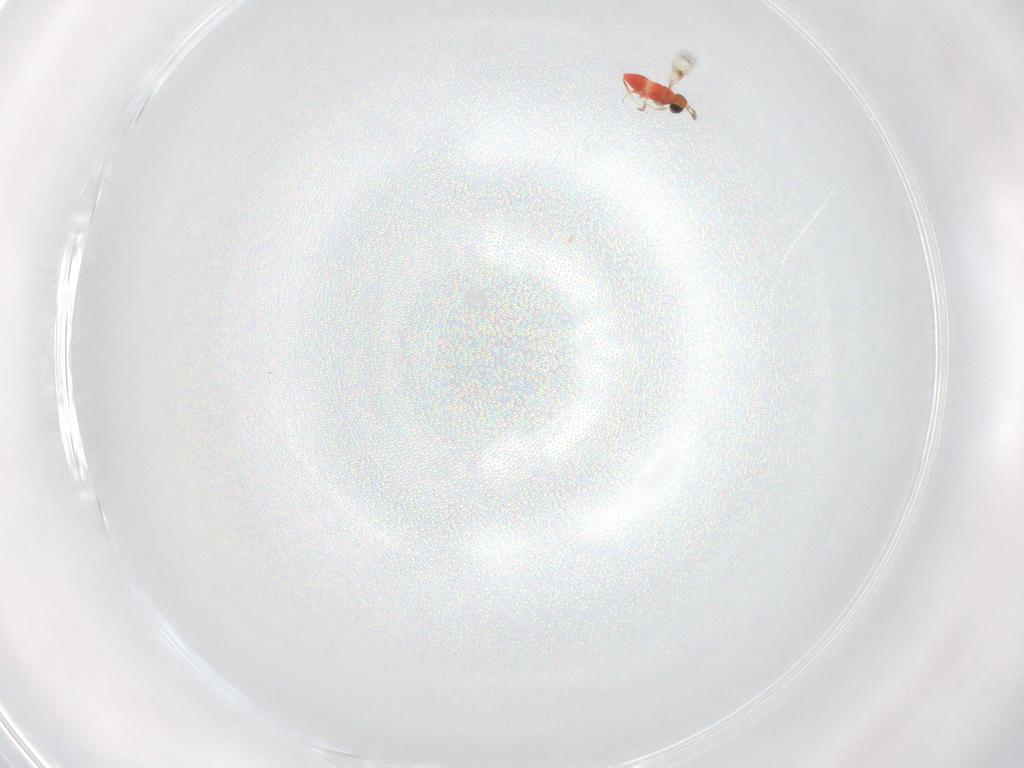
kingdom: Animalia
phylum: Arthropoda
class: Insecta
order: Hymenoptera
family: Trichogrammatidae
